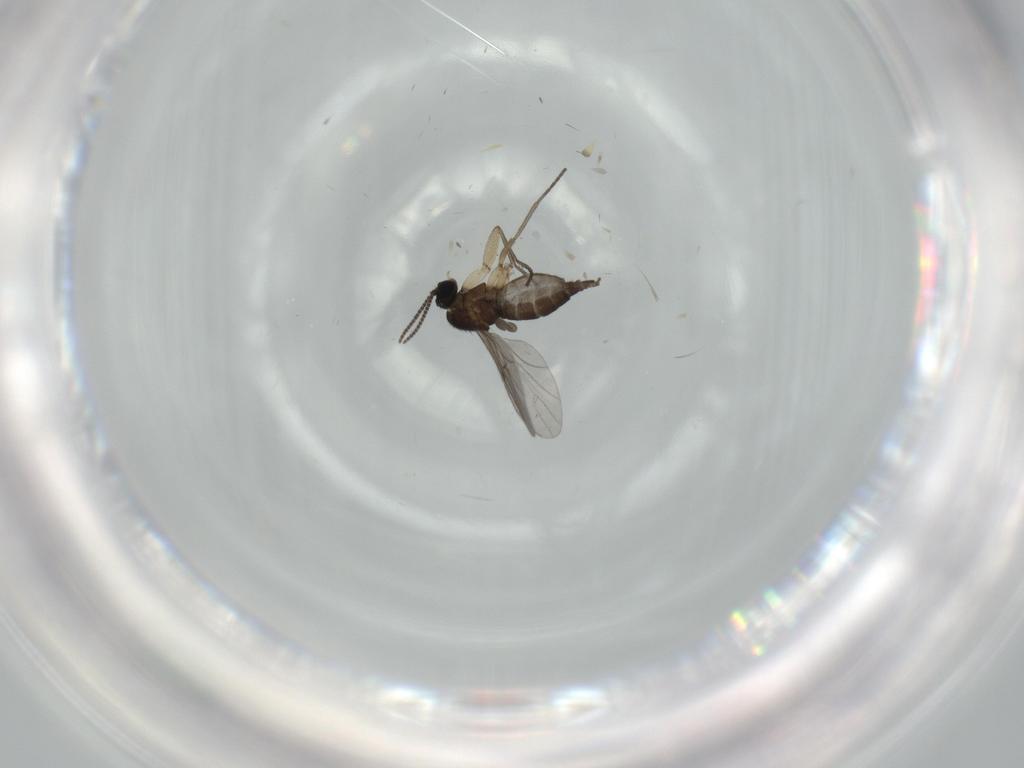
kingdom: Animalia
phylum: Arthropoda
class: Insecta
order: Diptera
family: Sciaridae
